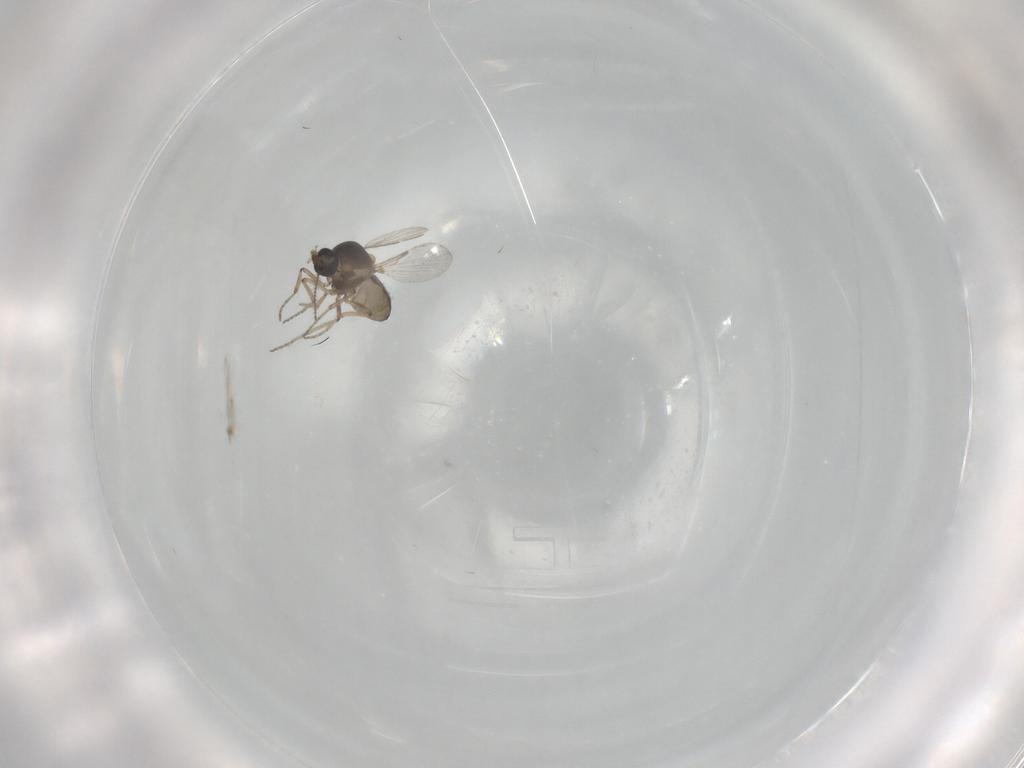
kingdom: Animalia
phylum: Arthropoda
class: Insecta
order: Diptera
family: Ceratopogonidae
